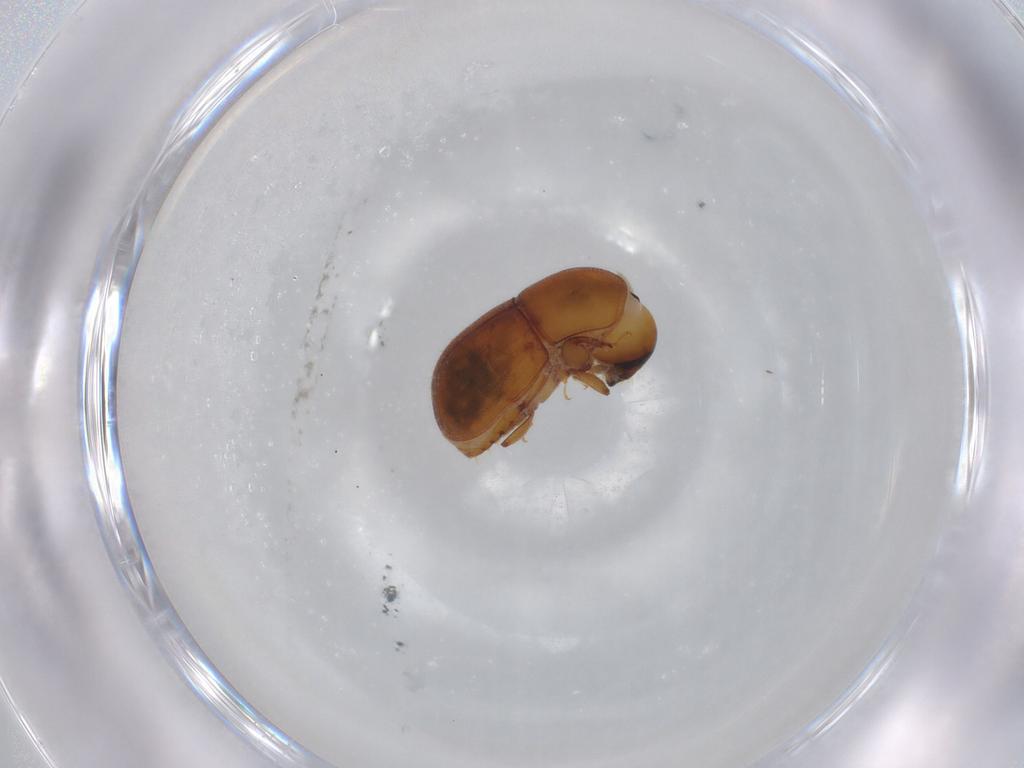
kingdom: Animalia
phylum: Arthropoda
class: Insecta
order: Coleoptera
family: Curculionidae
